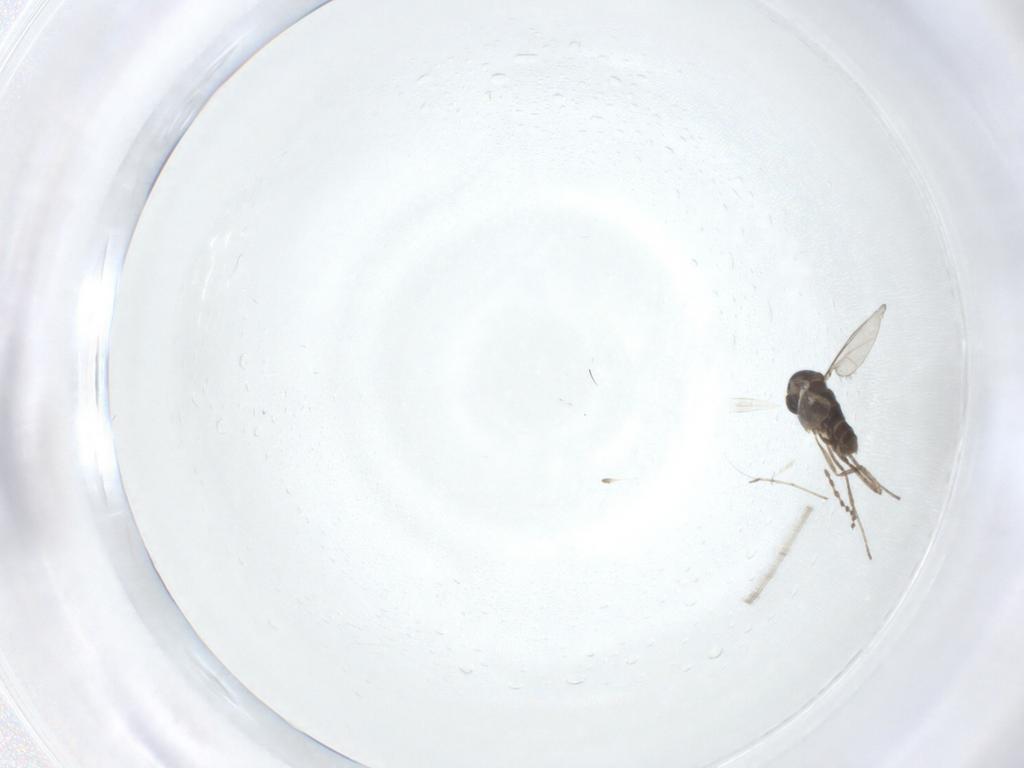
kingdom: Animalia
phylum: Arthropoda
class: Insecta
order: Diptera
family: Cecidomyiidae
